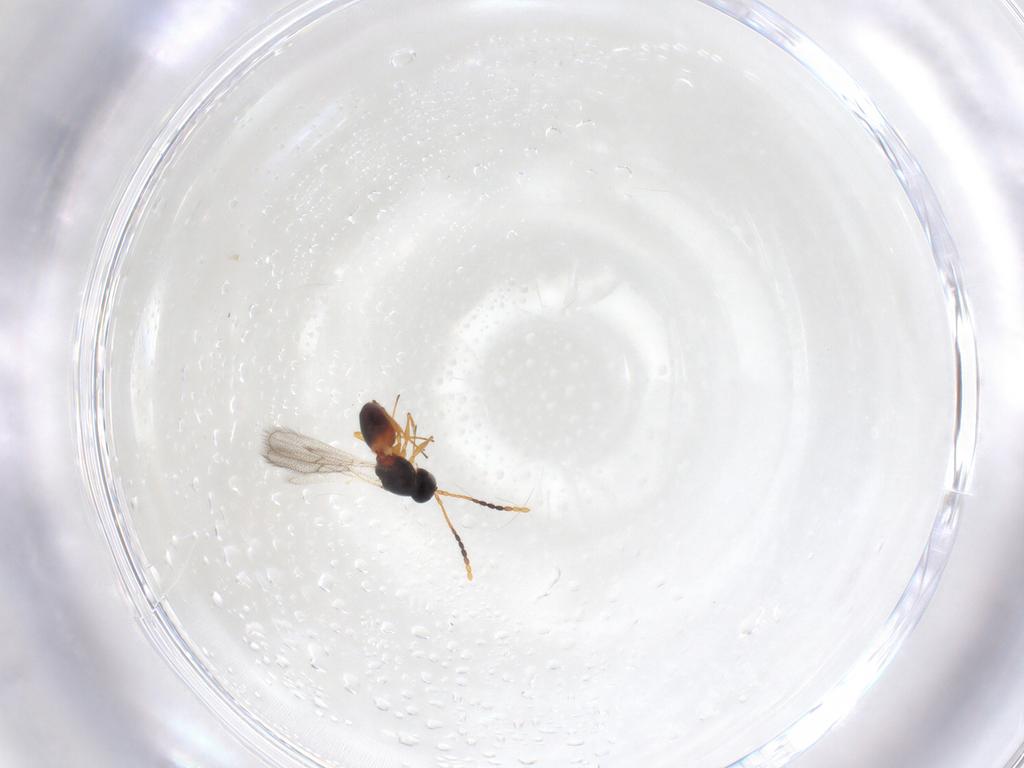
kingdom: Animalia
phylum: Arthropoda
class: Insecta
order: Hymenoptera
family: Figitidae
